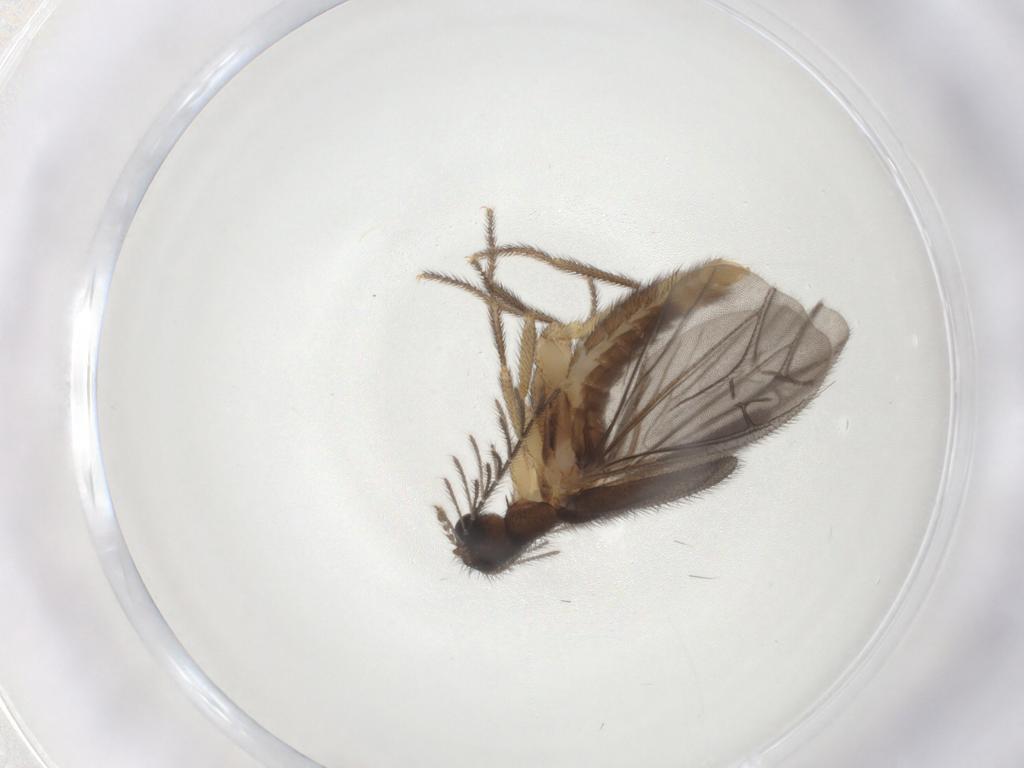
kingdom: Animalia
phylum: Arthropoda
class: Insecta
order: Coleoptera
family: Phengodidae
